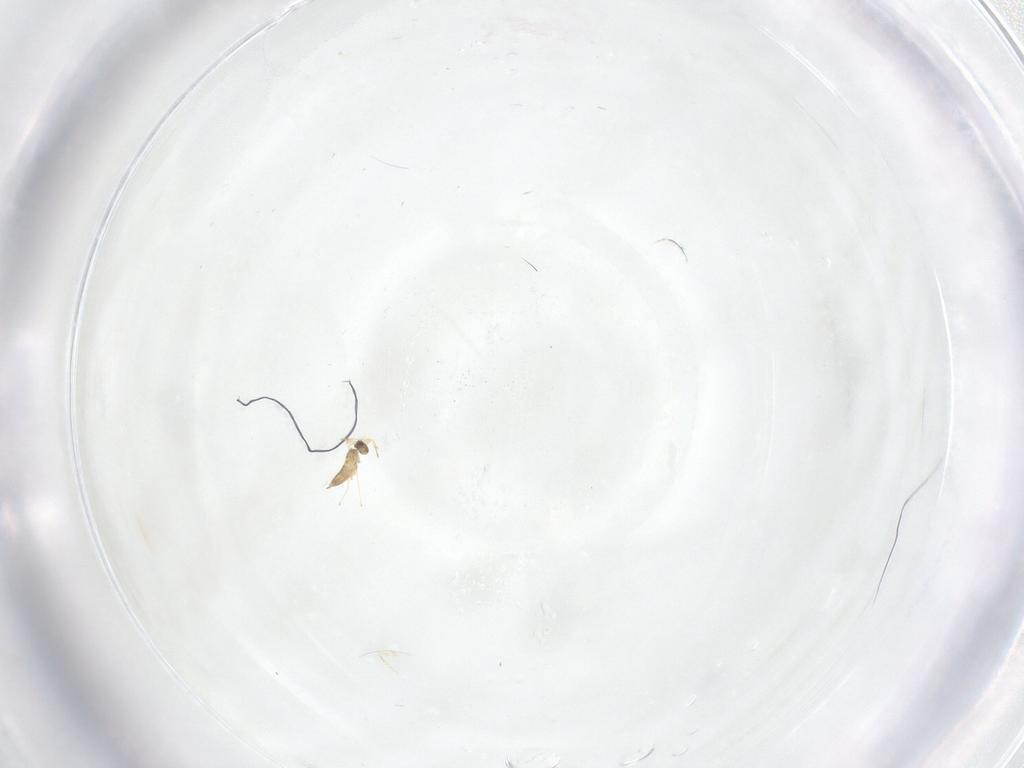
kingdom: Animalia
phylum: Arthropoda
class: Insecta
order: Hymenoptera
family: Mymaridae
